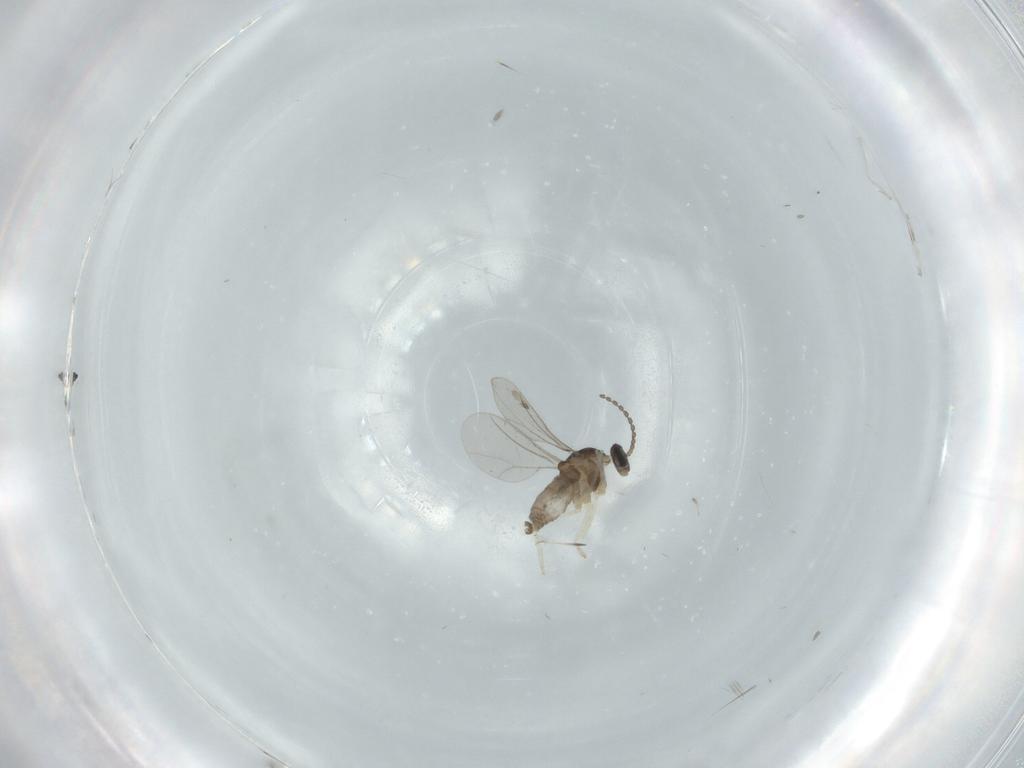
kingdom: Animalia
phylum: Arthropoda
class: Insecta
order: Diptera
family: Cecidomyiidae
